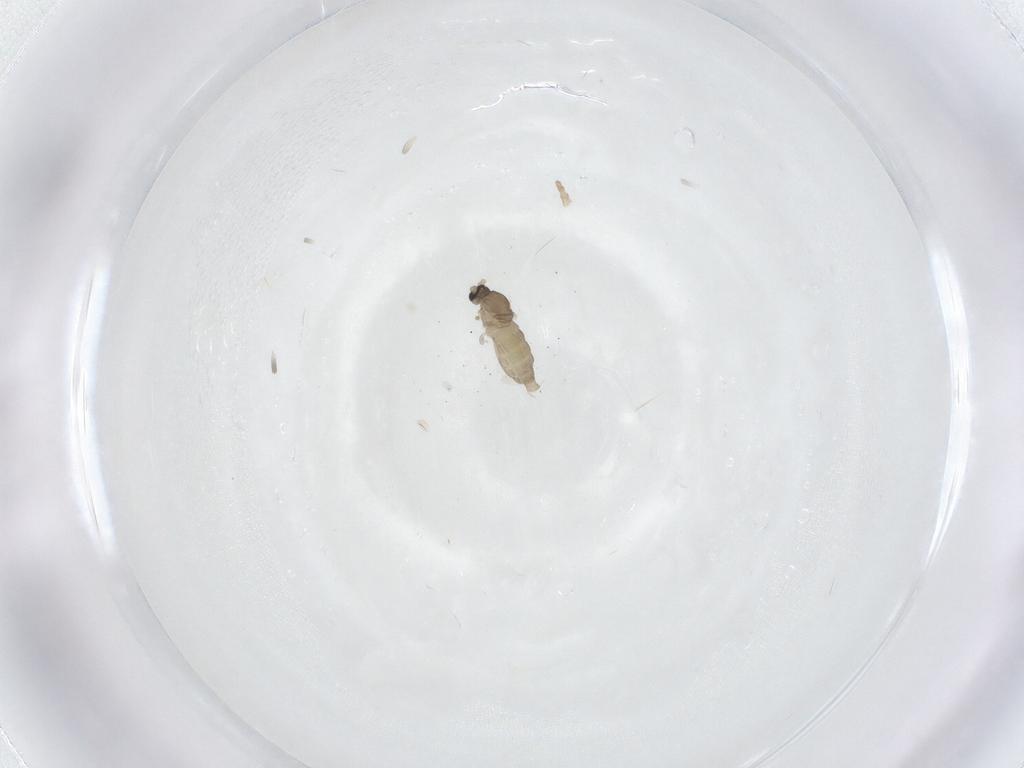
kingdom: Animalia
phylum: Arthropoda
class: Insecta
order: Diptera
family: Cecidomyiidae
